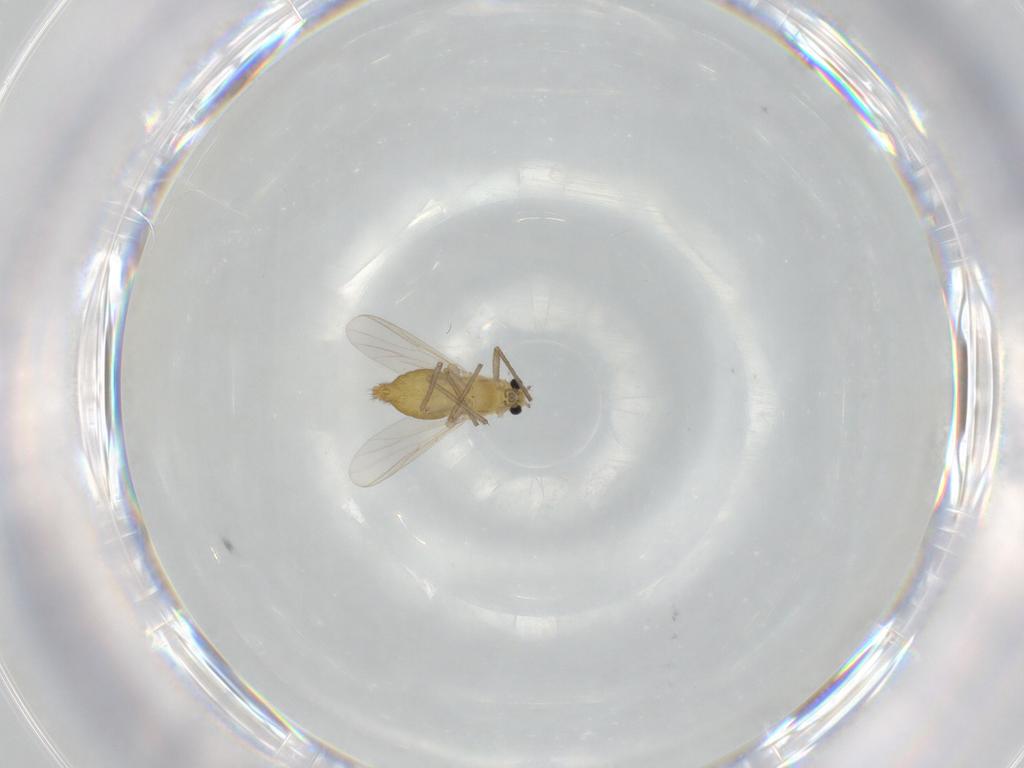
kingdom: Animalia
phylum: Arthropoda
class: Insecta
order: Diptera
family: Chironomidae
